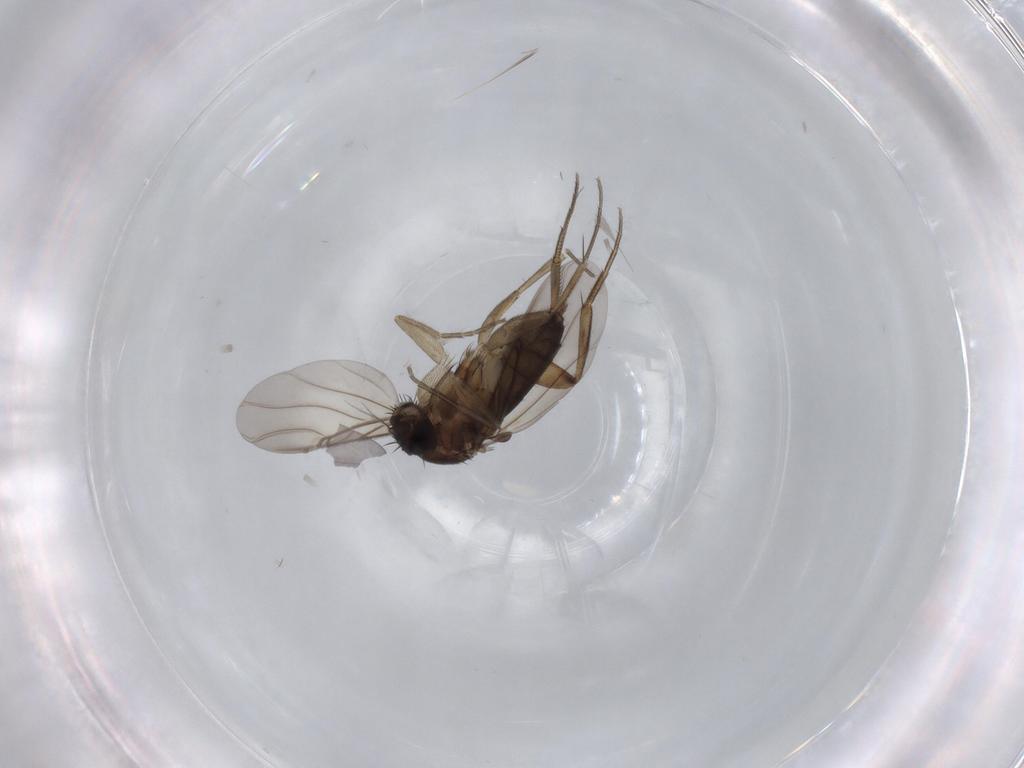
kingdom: Animalia
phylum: Arthropoda
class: Insecta
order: Diptera
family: Phoridae
